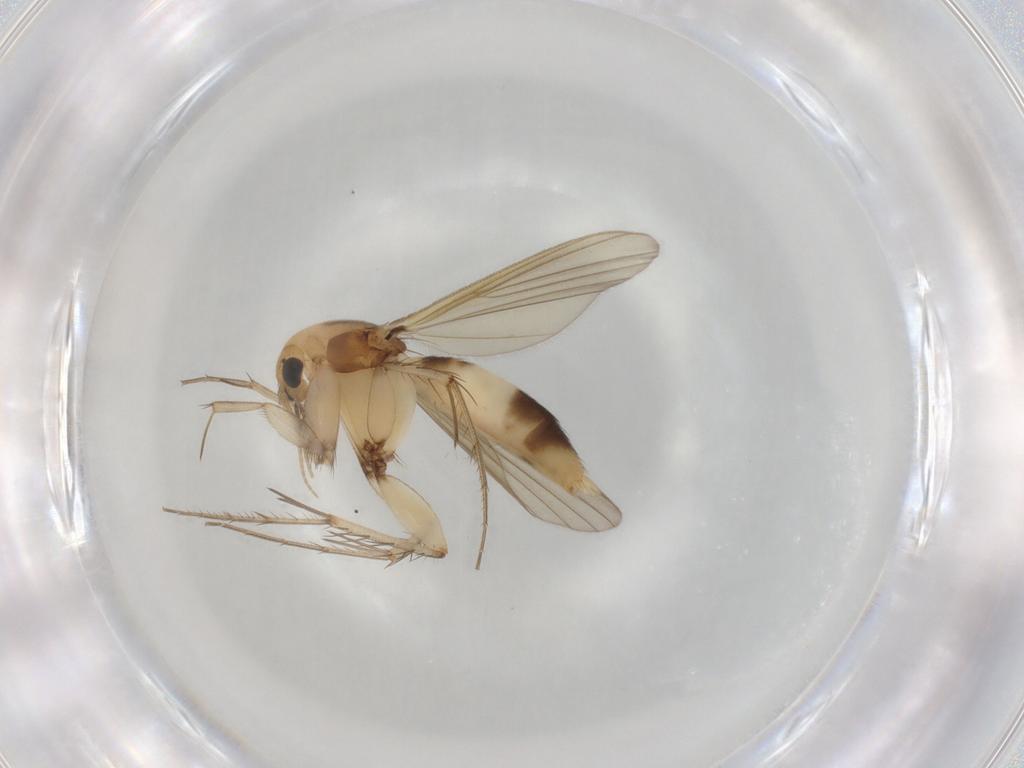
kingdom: Animalia
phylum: Arthropoda
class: Insecta
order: Diptera
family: Mycetophilidae
